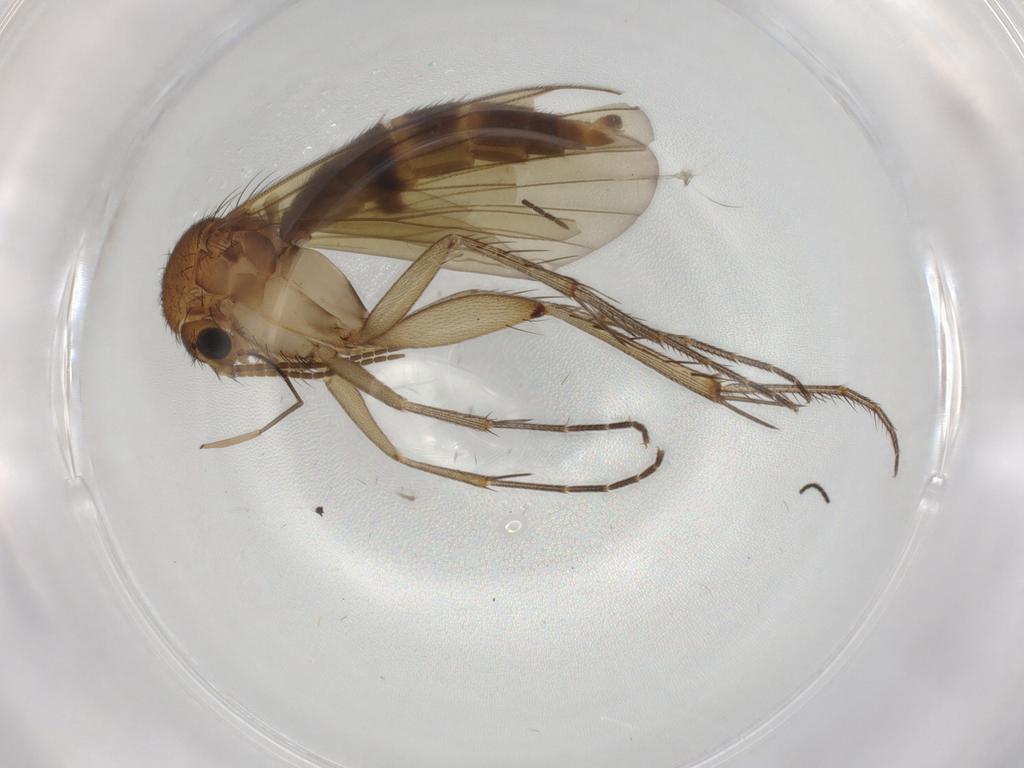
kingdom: Animalia
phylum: Arthropoda
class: Insecta
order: Diptera
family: Mycetophilidae
